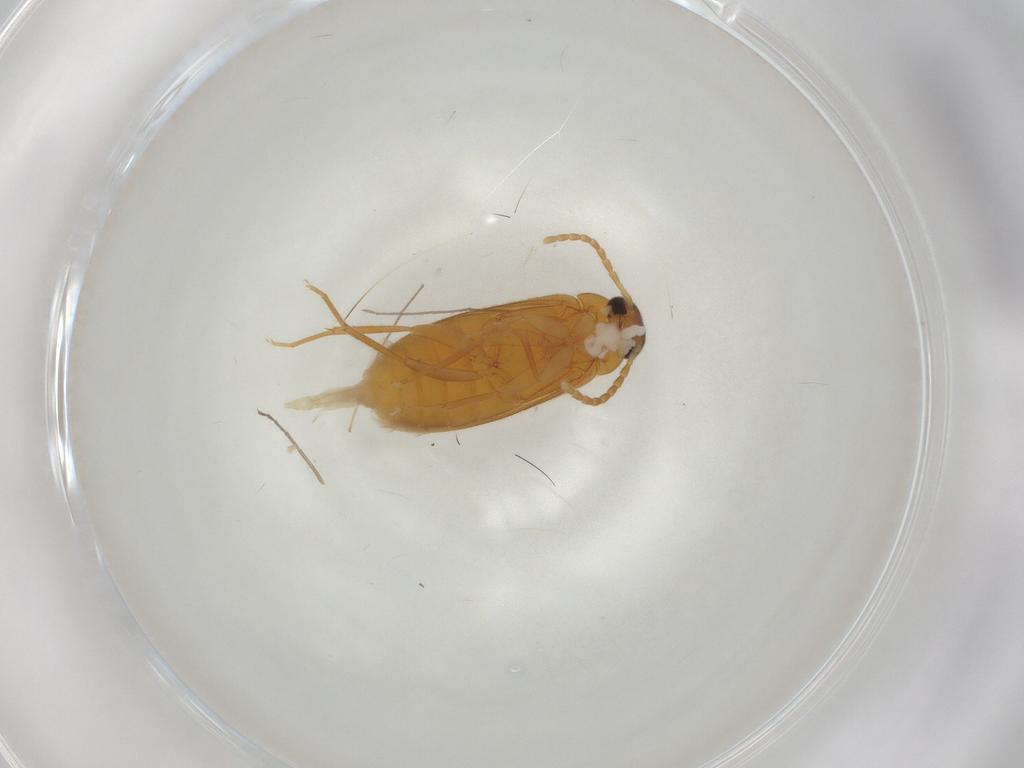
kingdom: Animalia
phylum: Arthropoda
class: Insecta
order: Coleoptera
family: Scraptiidae
